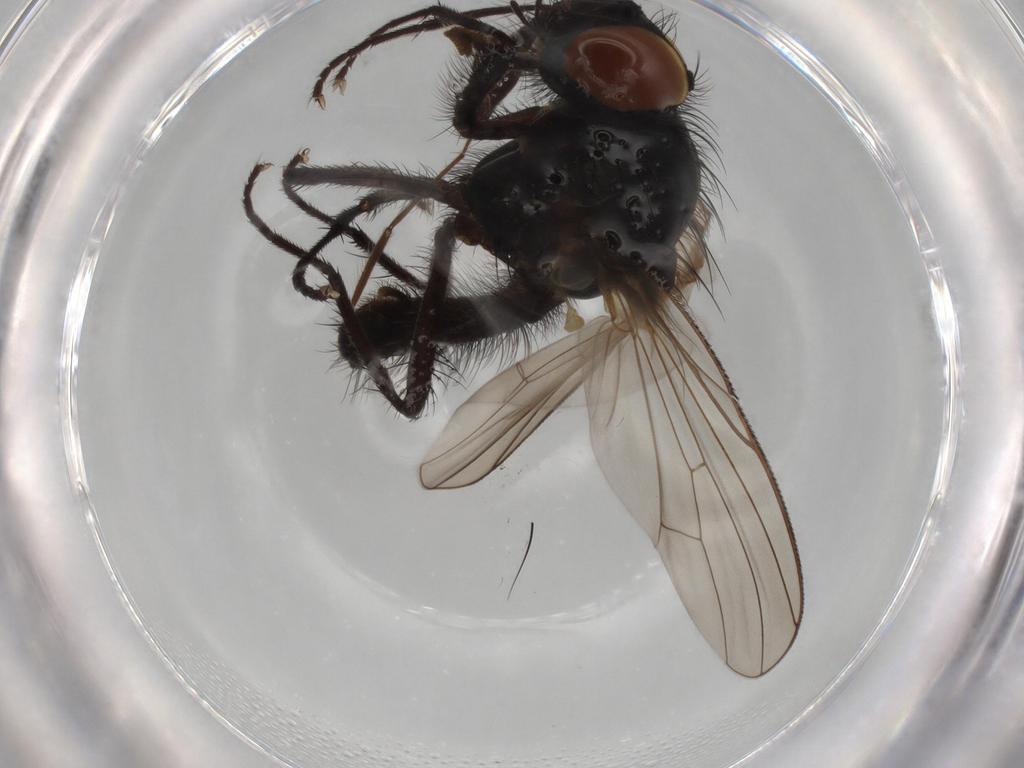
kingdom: Animalia
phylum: Arthropoda
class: Insecta
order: Diptera
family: Anthomyiidae
